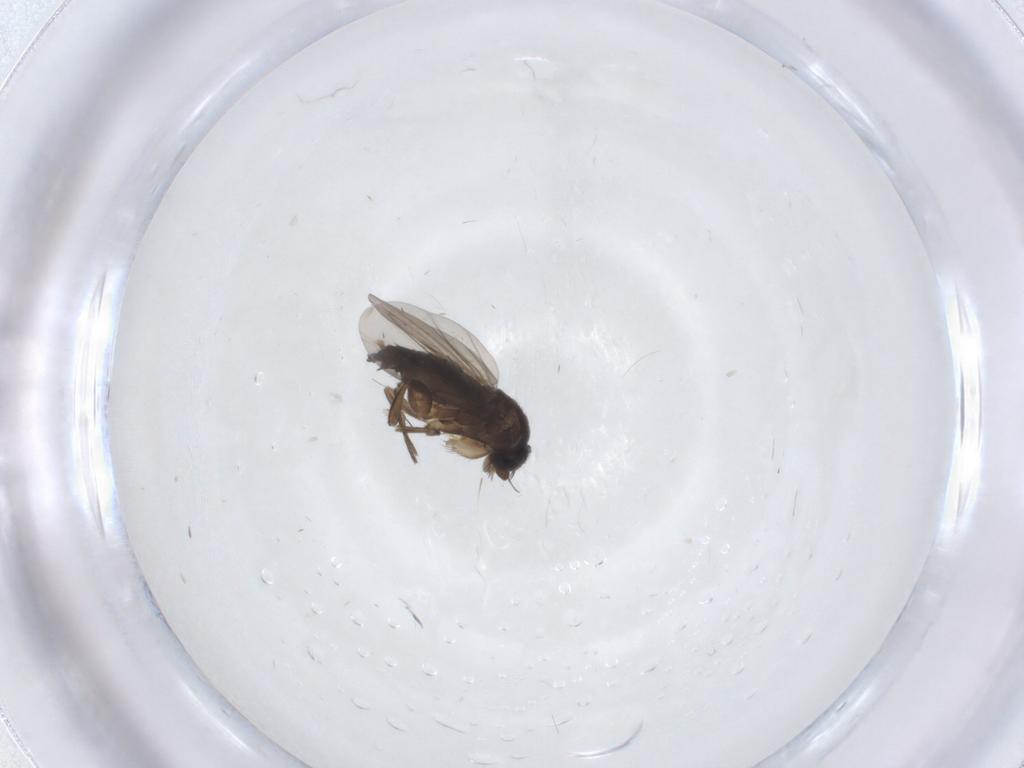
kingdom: Animalia
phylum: Arthropoda
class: Insecta
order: Diptera
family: Phoridae
